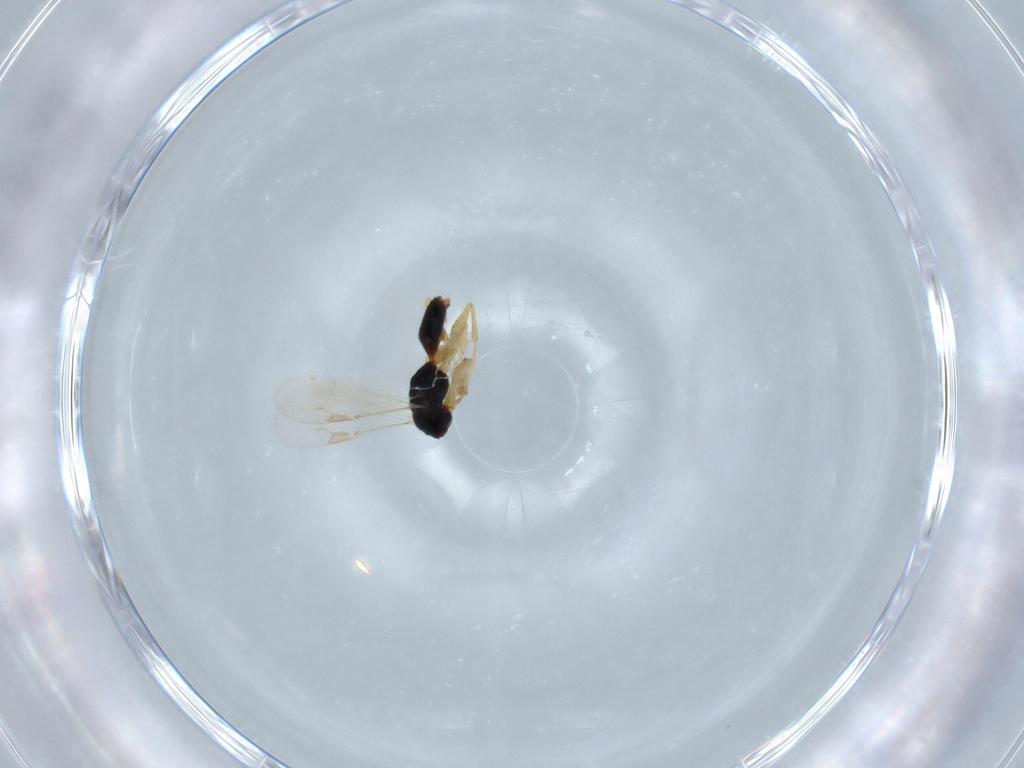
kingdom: Animalia
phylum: Arthropoda
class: Insecta
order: Hymenoptera
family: Dryinidae
